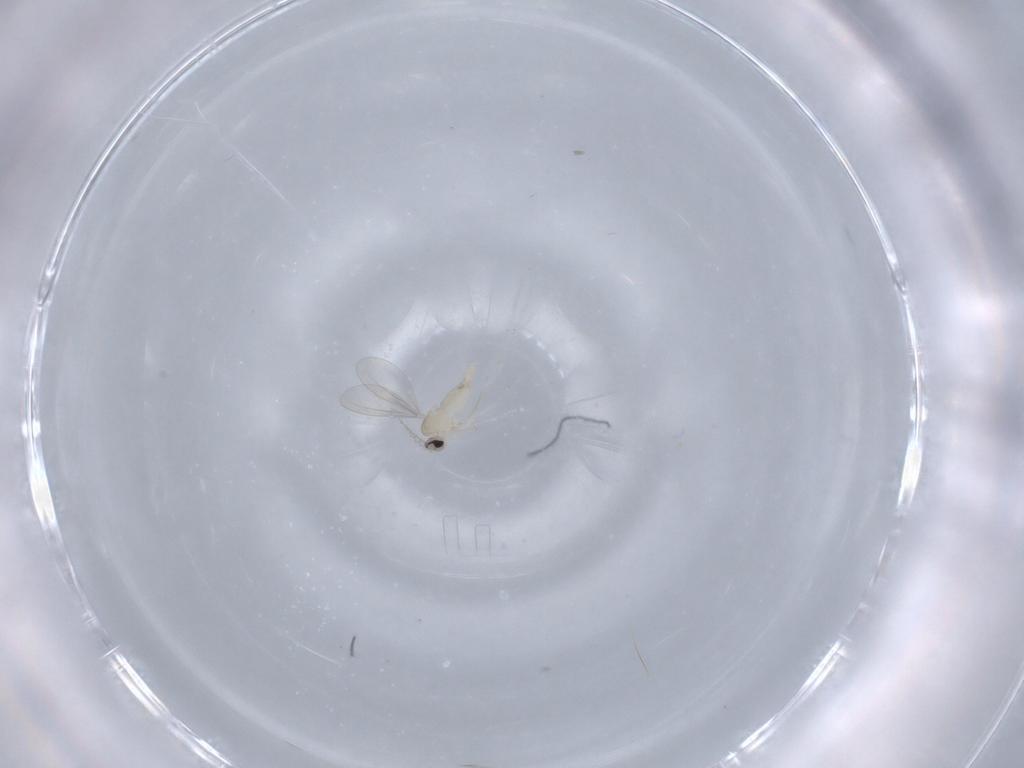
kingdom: Animalia
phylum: Arthropoda
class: Insecta
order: Diptera
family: Cecidomyiidae
